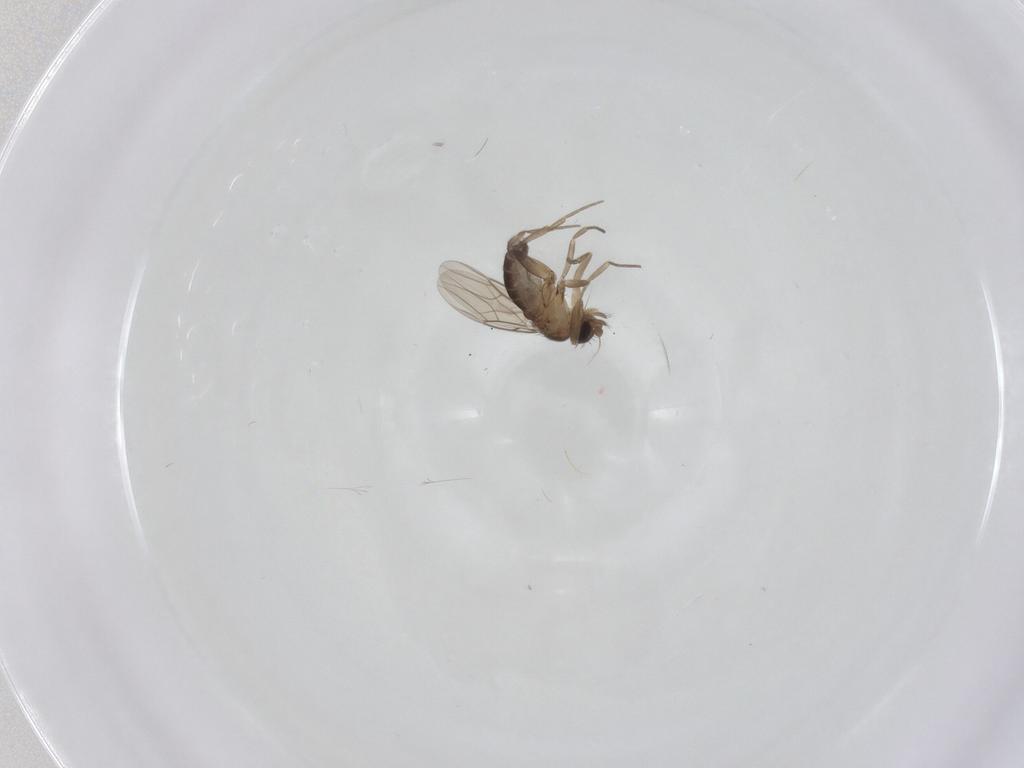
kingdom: Animalia
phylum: Arthropoda
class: Insecta
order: Diptera
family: Phoridae
